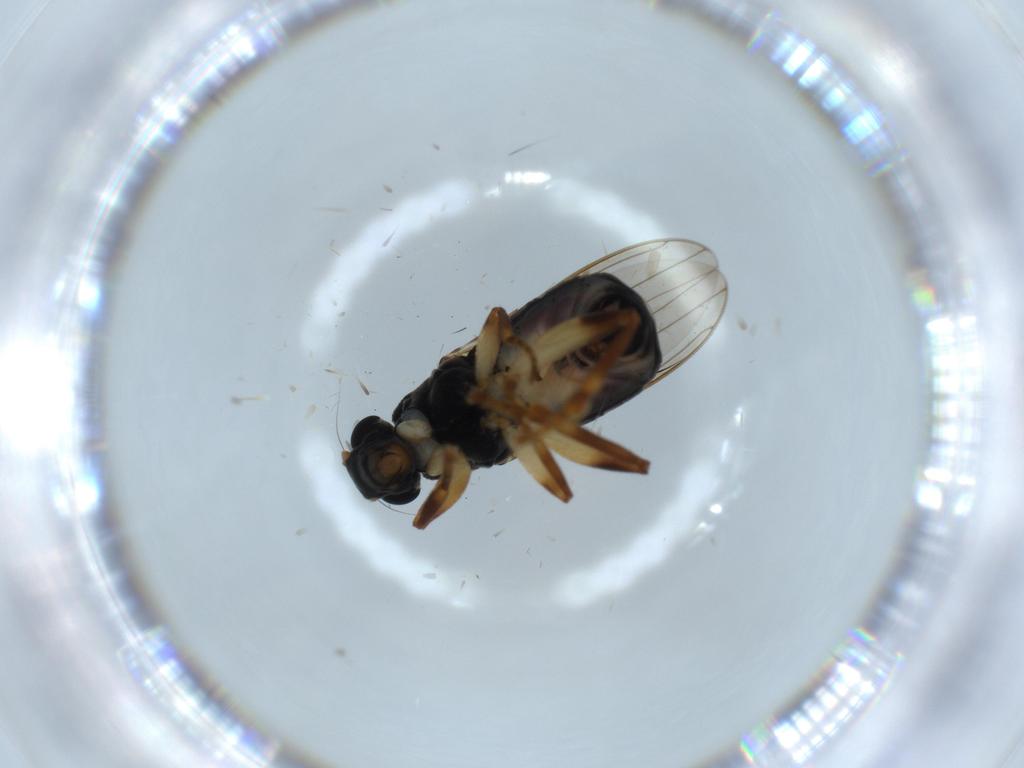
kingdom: Animalia
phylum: Arthropoda
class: Insecta
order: Diptera
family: Sphaeroceridae
